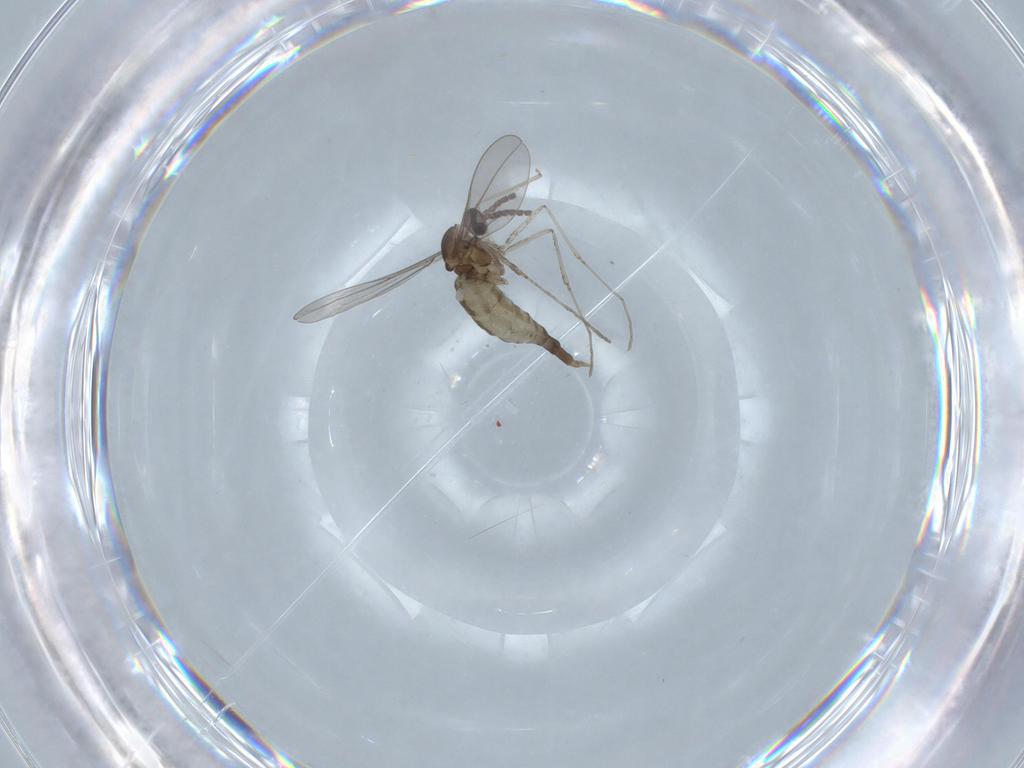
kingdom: Animalia
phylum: Arthropoda
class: Insecta
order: Diptera
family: Cecidomyiidae
